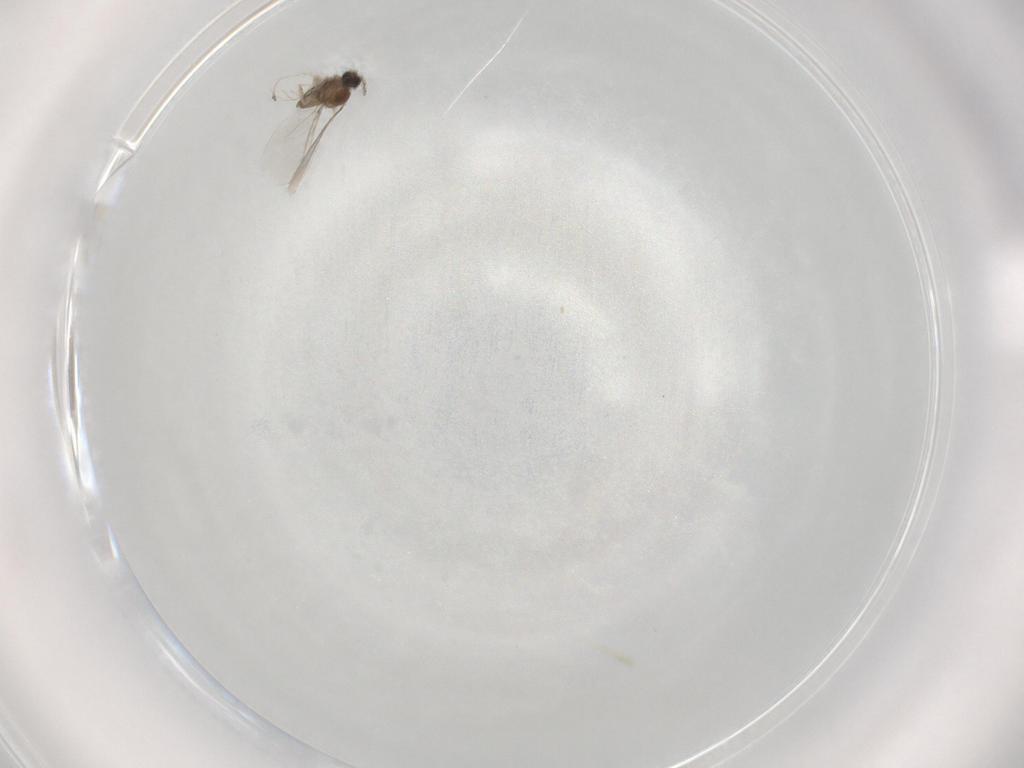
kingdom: Animalia
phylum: Arthropoda
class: Insecta
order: Diptera
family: Cecidomyiidae
